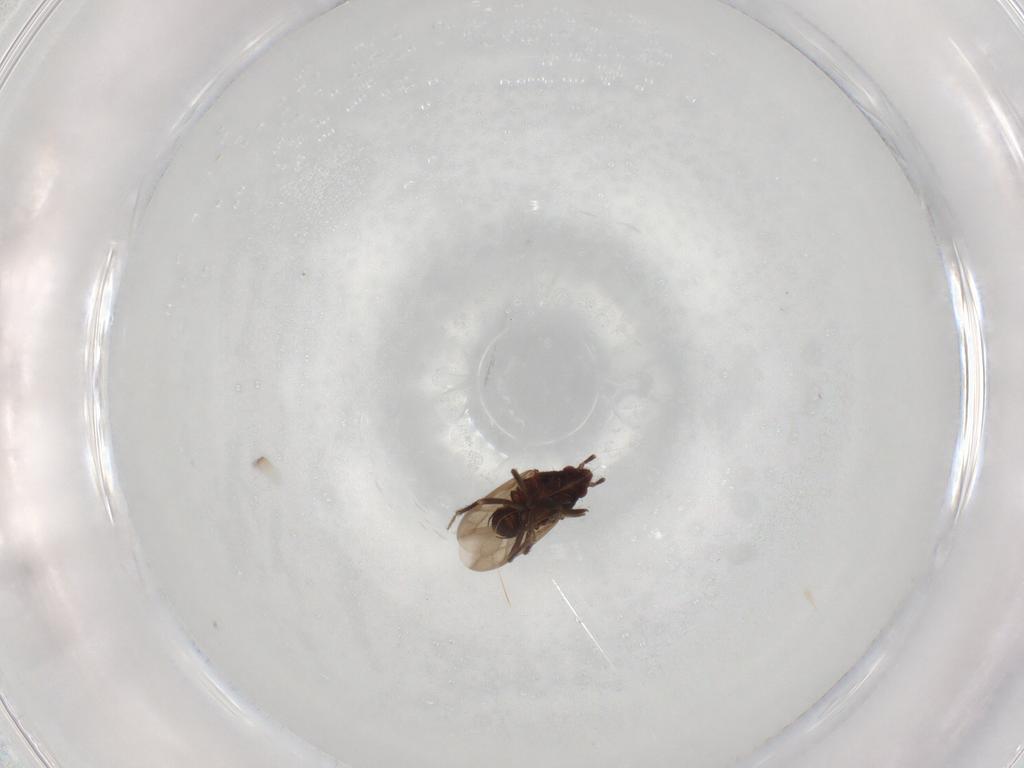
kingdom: Animalia
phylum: Arthropoda
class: Insecta
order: Hemiptera
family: Ceratocombidae
